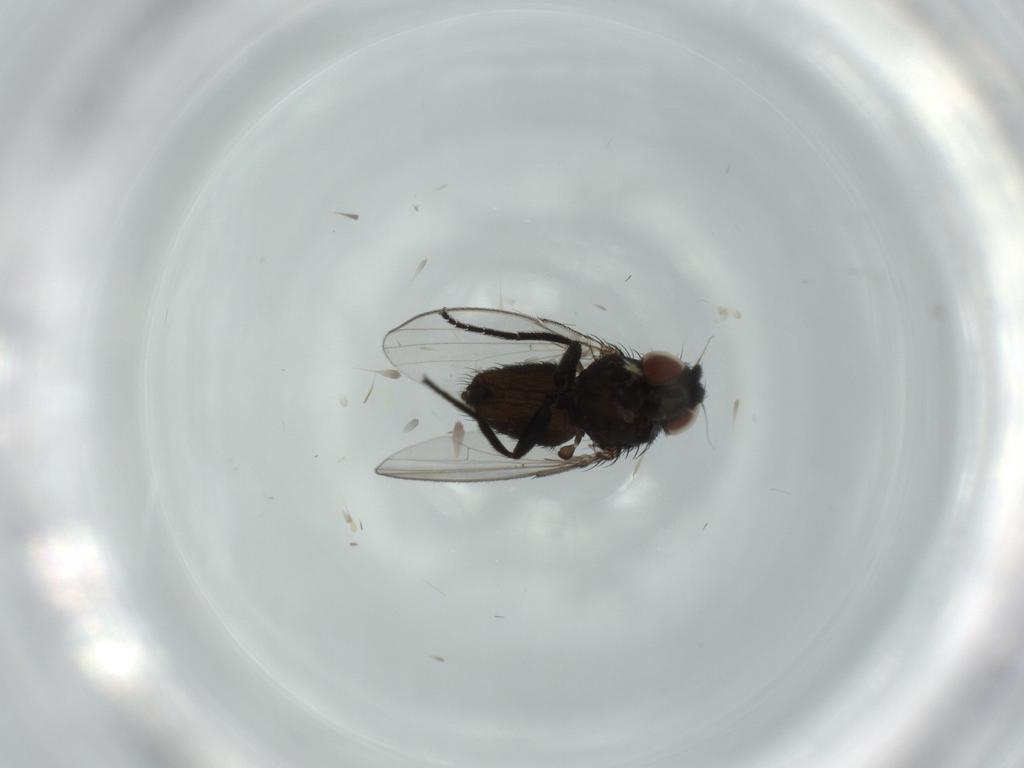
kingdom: Animalia
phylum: Arthropoda
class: Insecta
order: Diptera
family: Milichiidae
